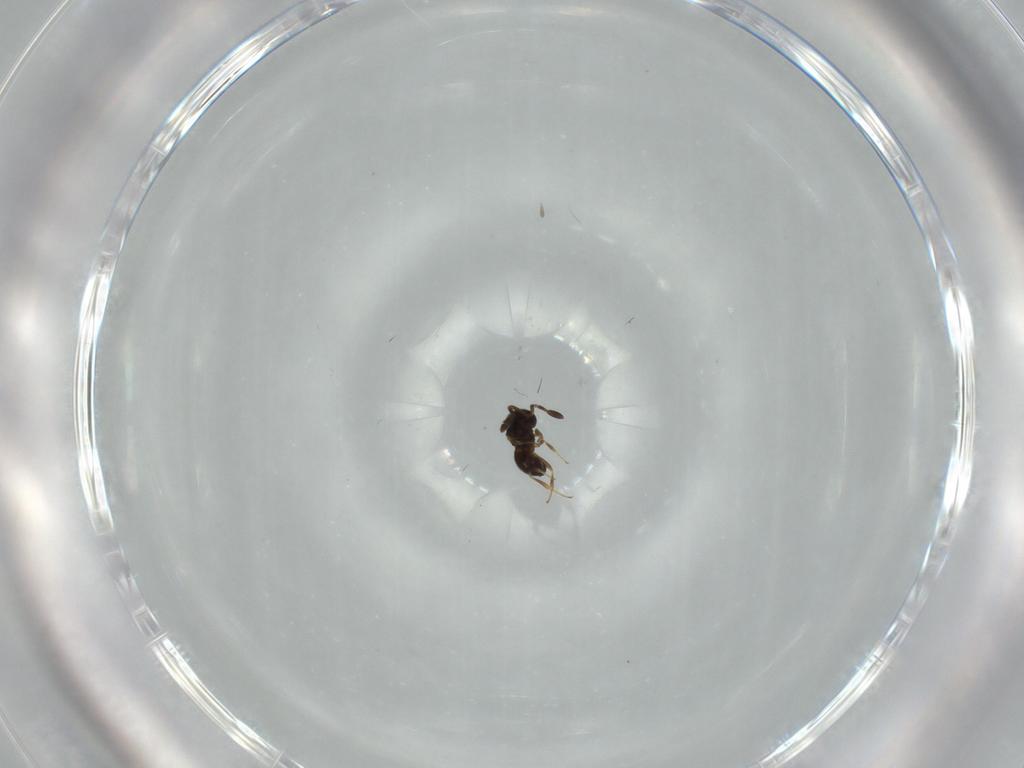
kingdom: Animalia
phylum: Arthropoda
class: Insecta
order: Hymenoptera
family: Scelionidae
